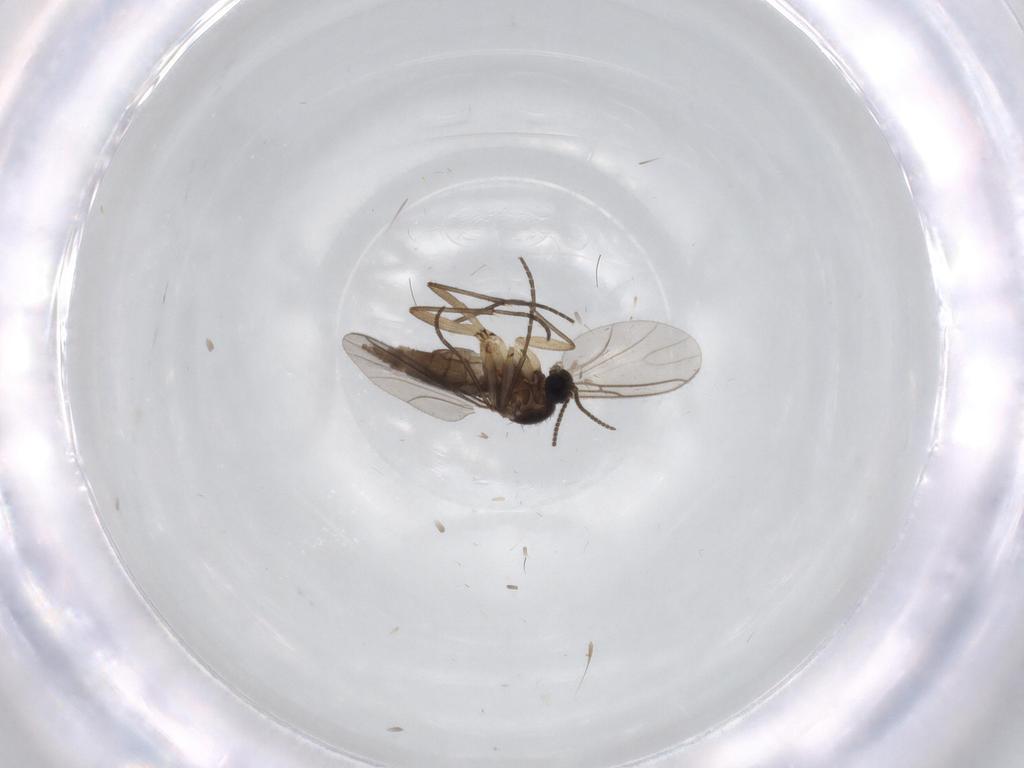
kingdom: Animalia
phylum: Arthropoda
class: Insecta
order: Diptera
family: Sciaridae
